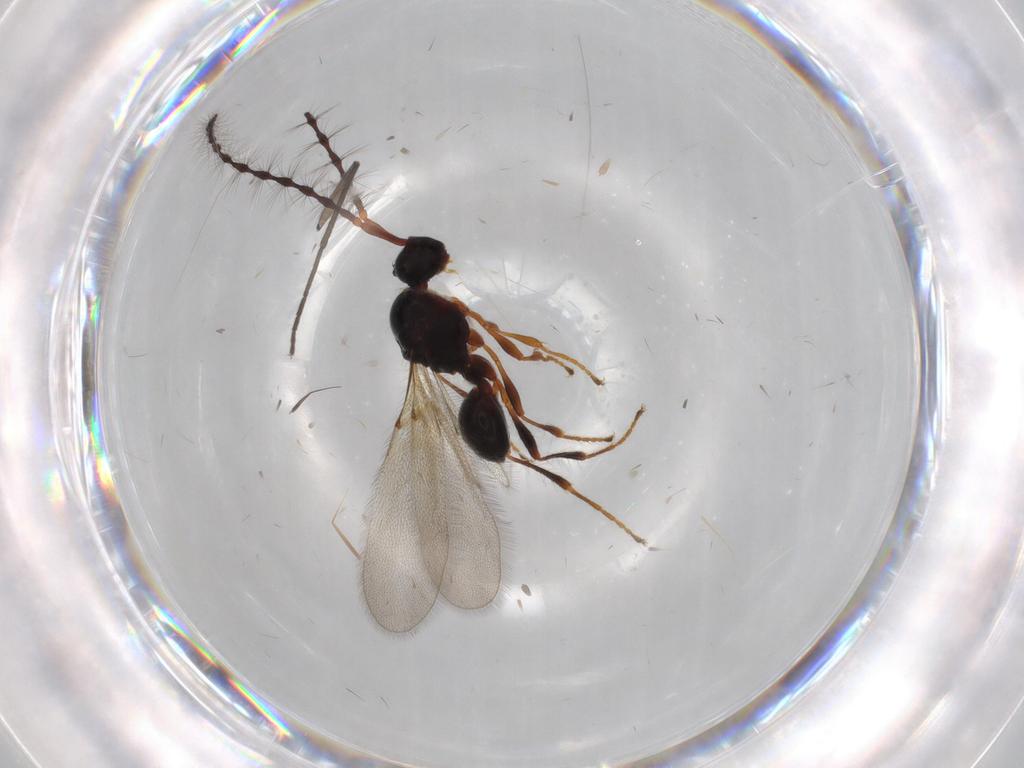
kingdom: Animalia
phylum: Arthropoda
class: Insecta
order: Hymenoptera
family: Diapriidae
